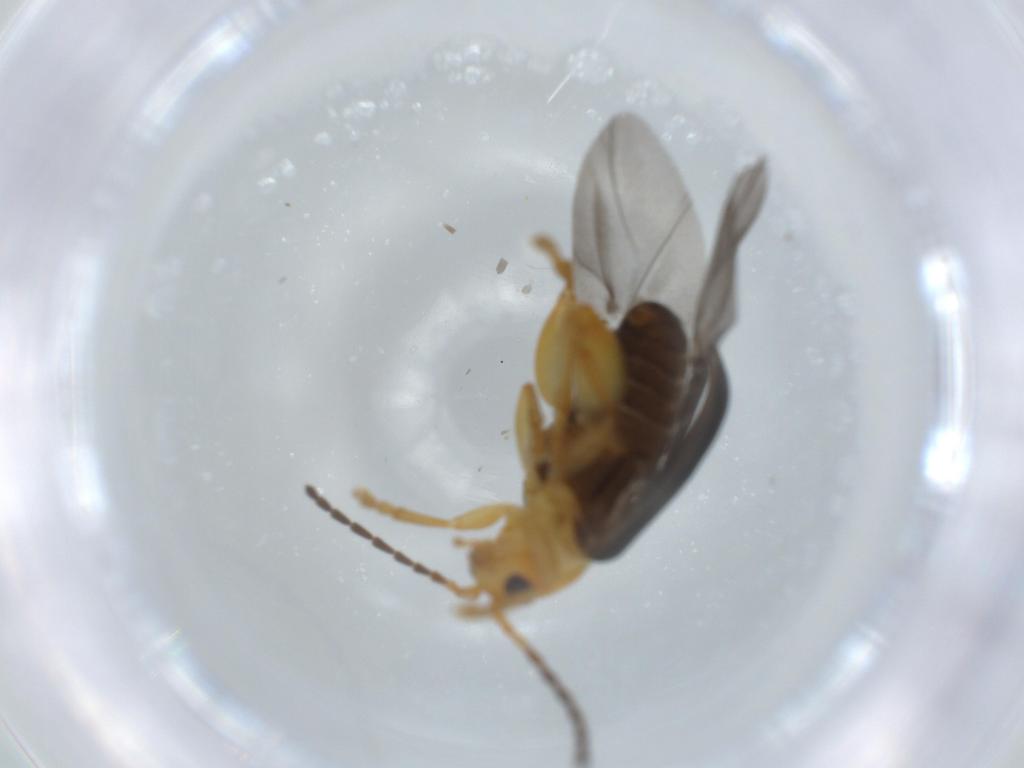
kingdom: Animalia
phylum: Arthropoda
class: Insecta
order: Coleoptera
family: Chrysomelidae
